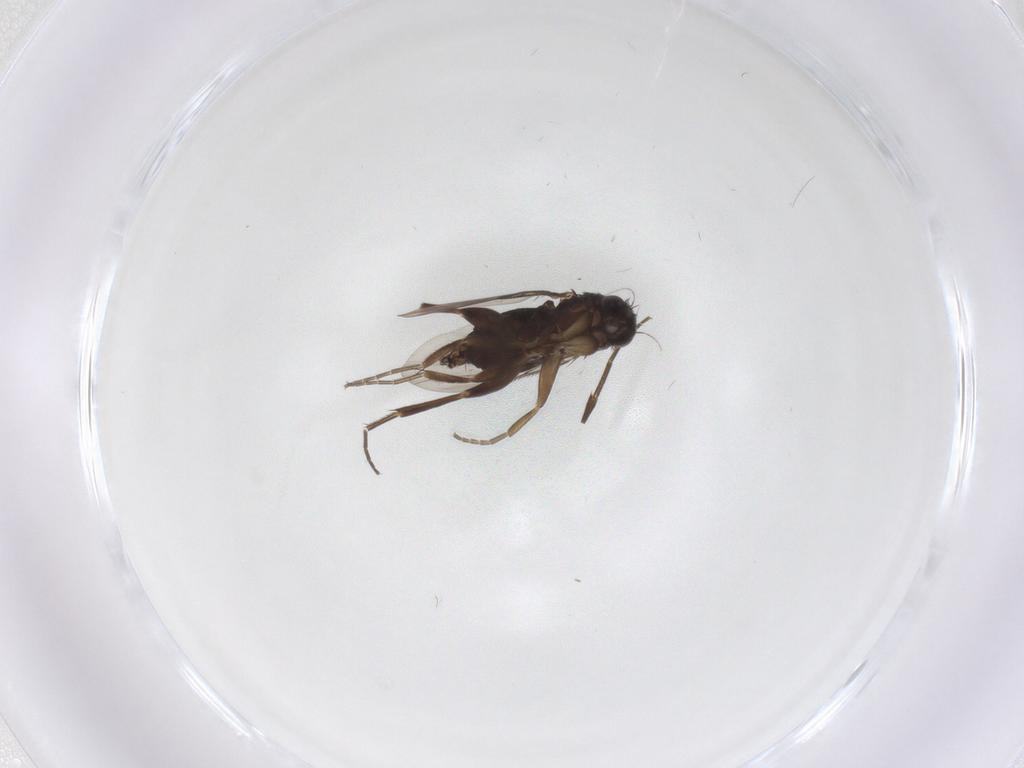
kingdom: Animalia
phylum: Arthropoda
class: Insecta
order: Diptera
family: Phoridae
